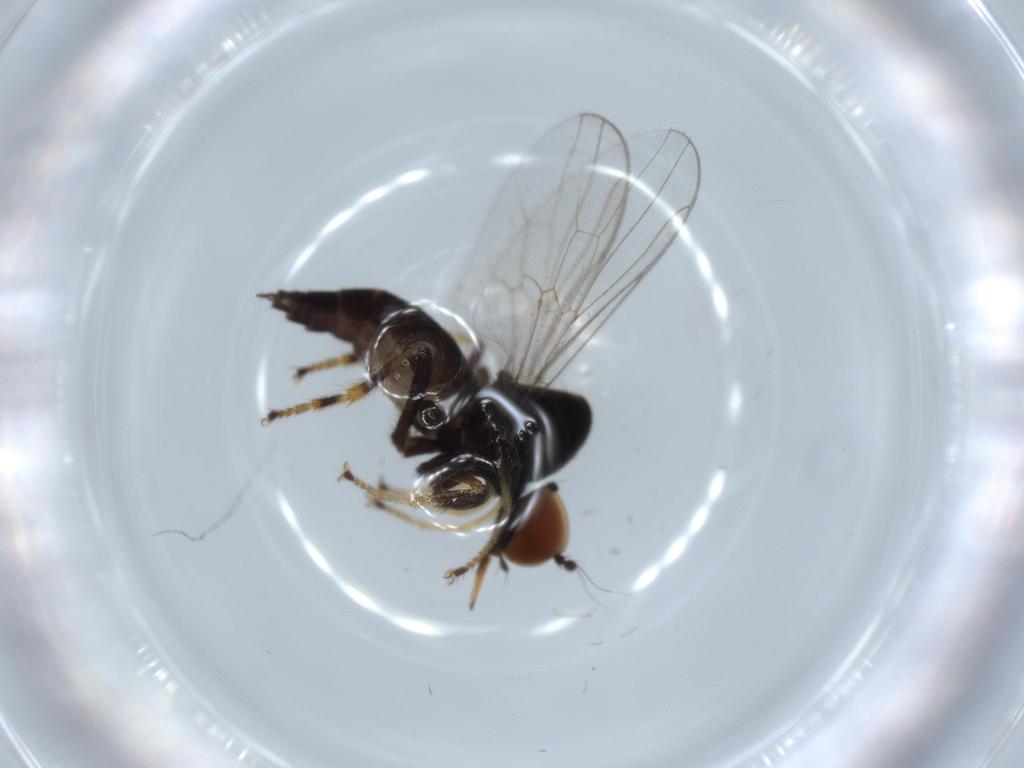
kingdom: Animalia
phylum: Arthropoda
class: Insecta
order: Diptera
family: Hybotidae
